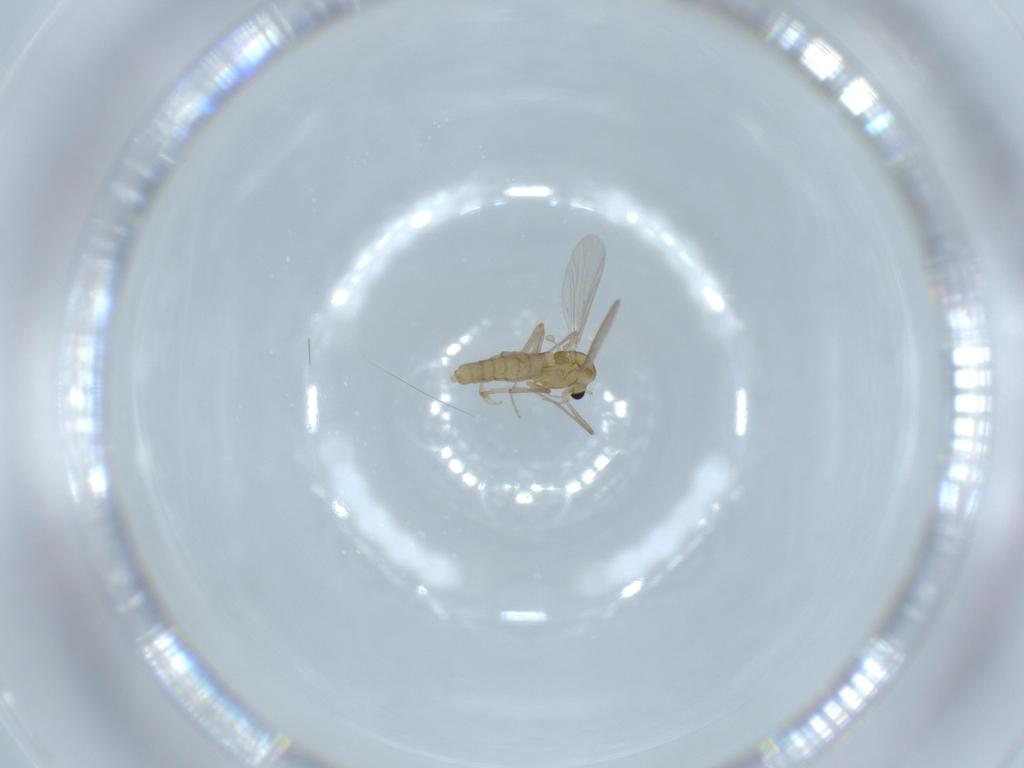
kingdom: Animalia
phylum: Arthropoda
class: Insecta
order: Diptera
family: Chironomidae
